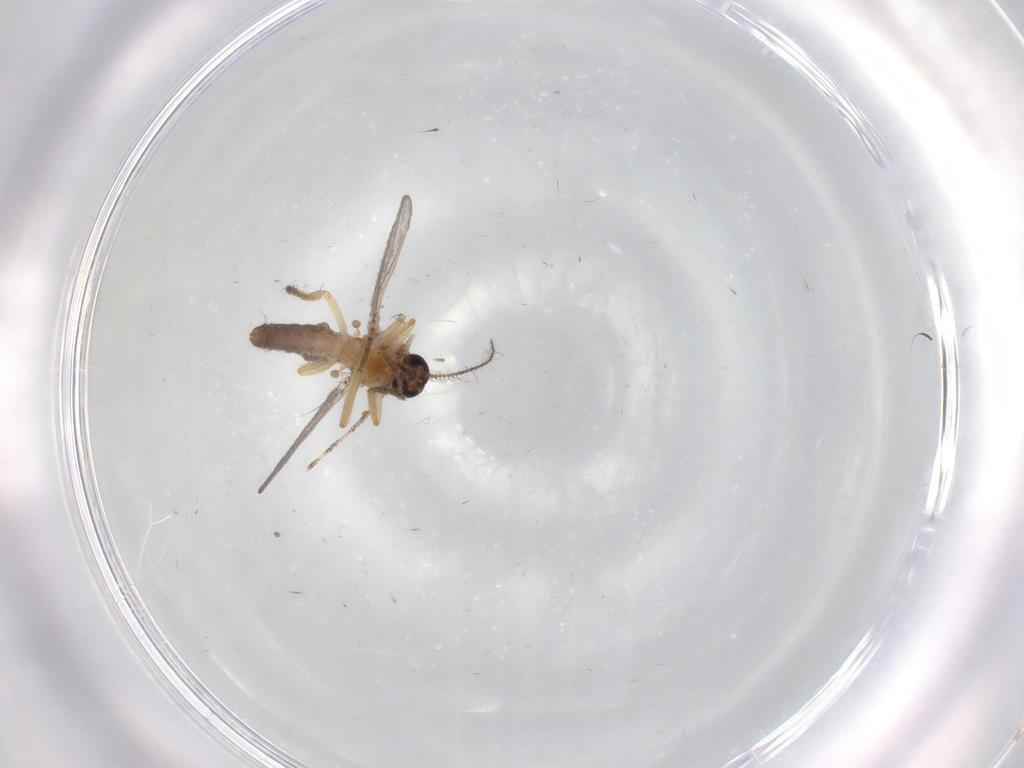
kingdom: Animalia
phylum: Arthropoda
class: Insecta
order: Diptera
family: Ceratopogonidae
